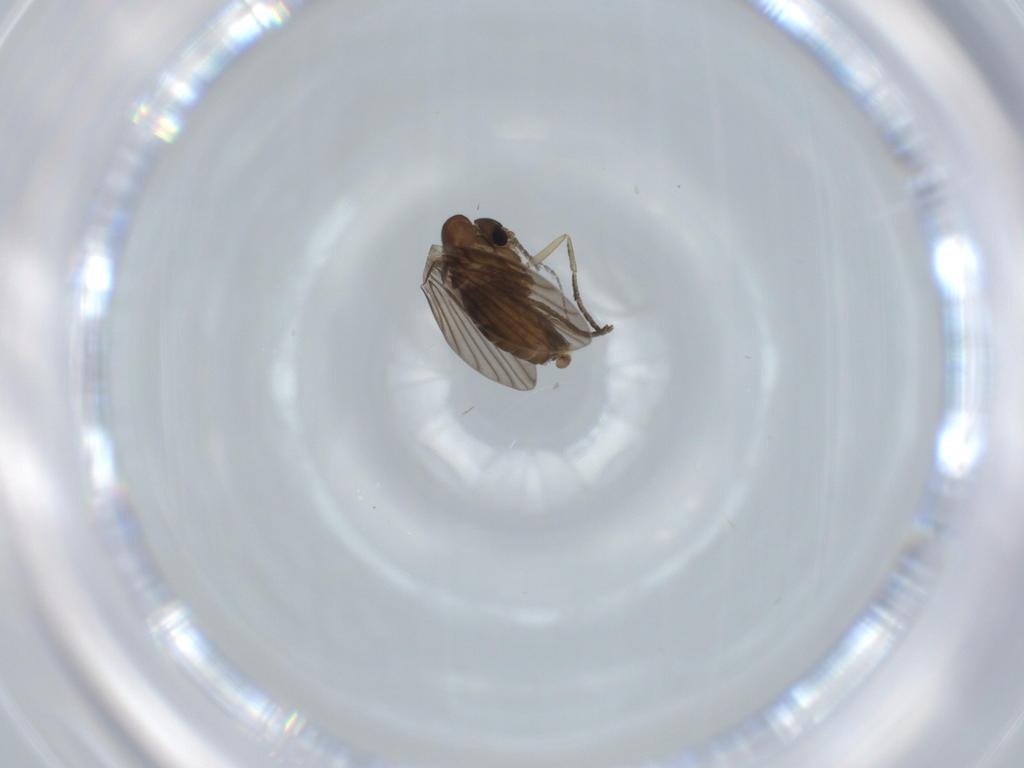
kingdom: Animalia
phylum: Arthropoda
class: Insecta
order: Diptera
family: Psychodidae
